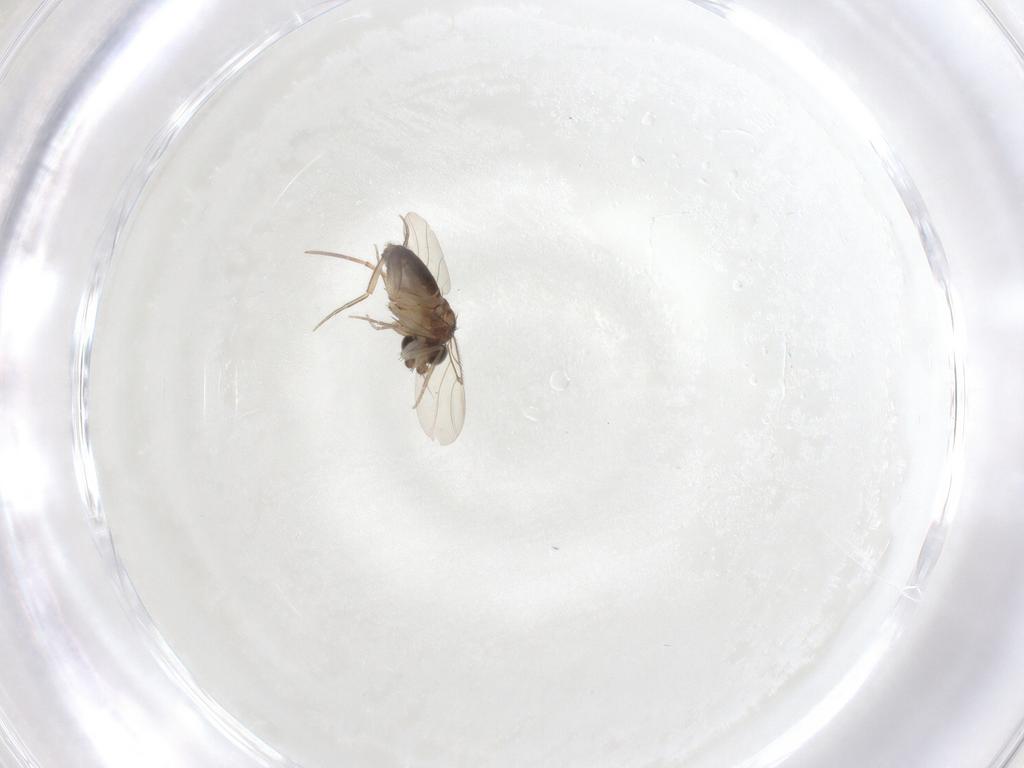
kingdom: Animalia
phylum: Arthropoda
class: Insecta
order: Diptera
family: Phoridae
